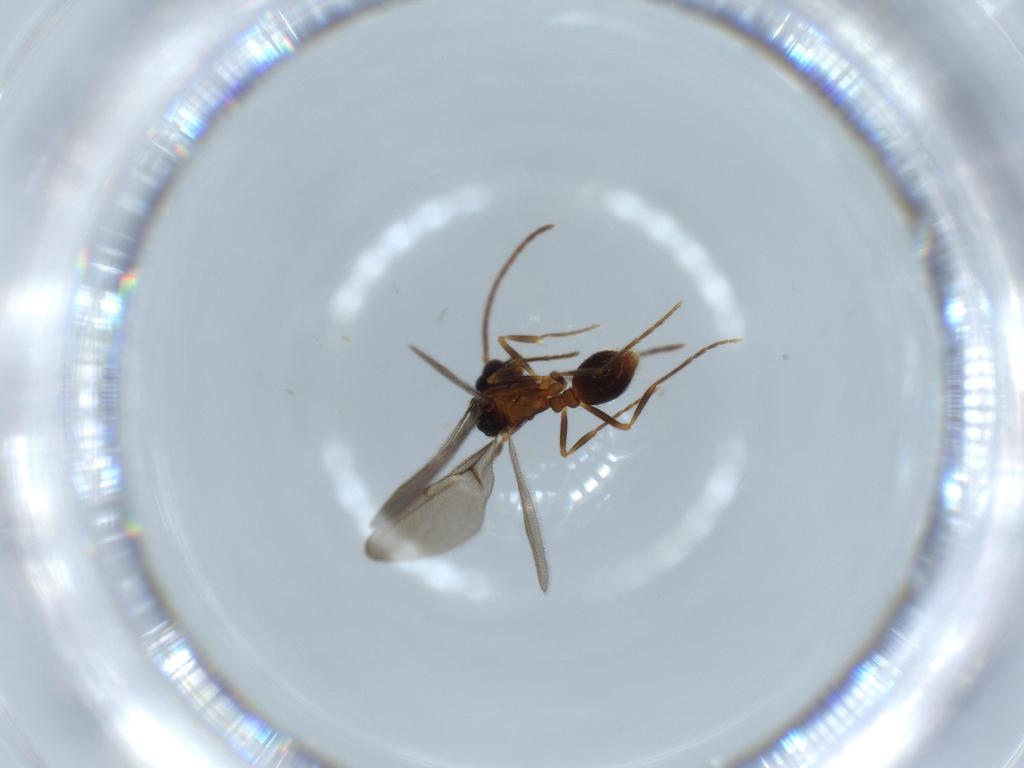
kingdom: Animalia
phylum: Arthropoda
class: Insecta
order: Hymenoptera
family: Formicidae
